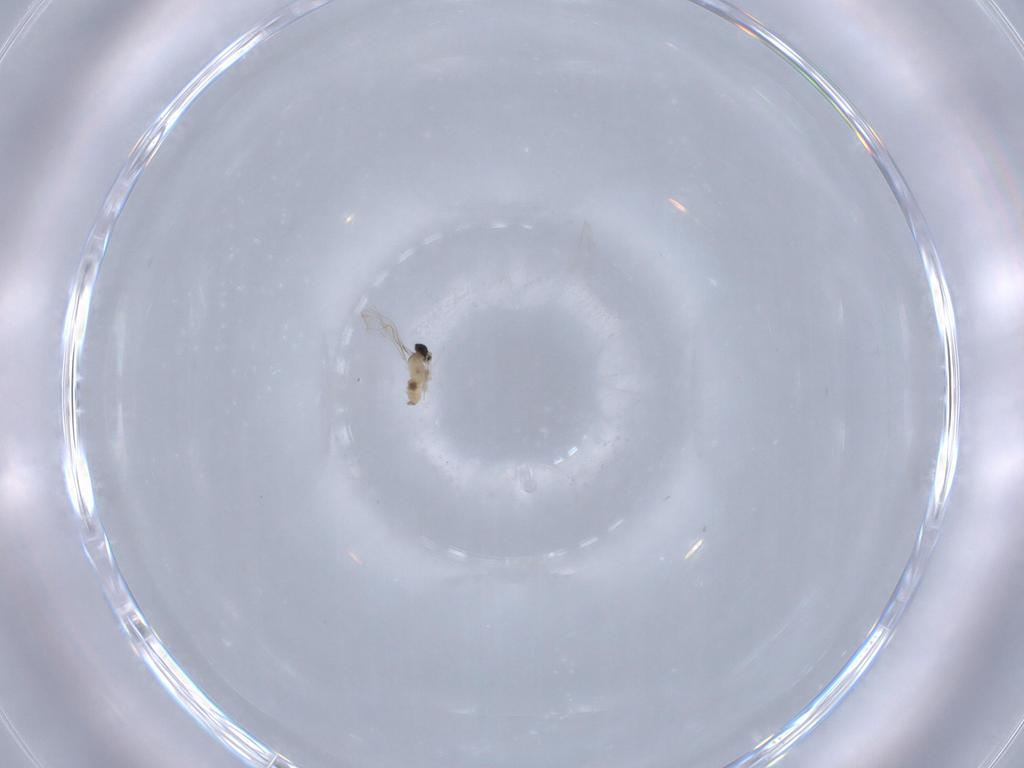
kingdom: Animalia
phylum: Arthropoda
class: Insecta
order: Diptera
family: Cecidomyiidae
